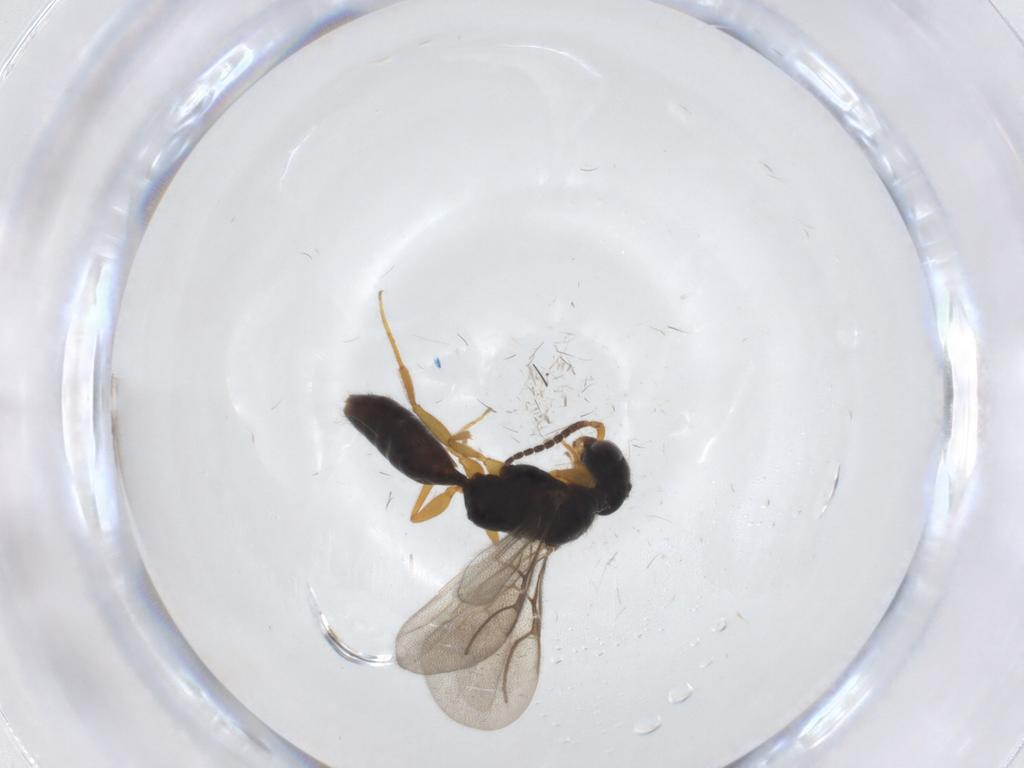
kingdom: Animalia
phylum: Arthropoda
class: Insecta
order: Hymenoptera
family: Bethylidae
